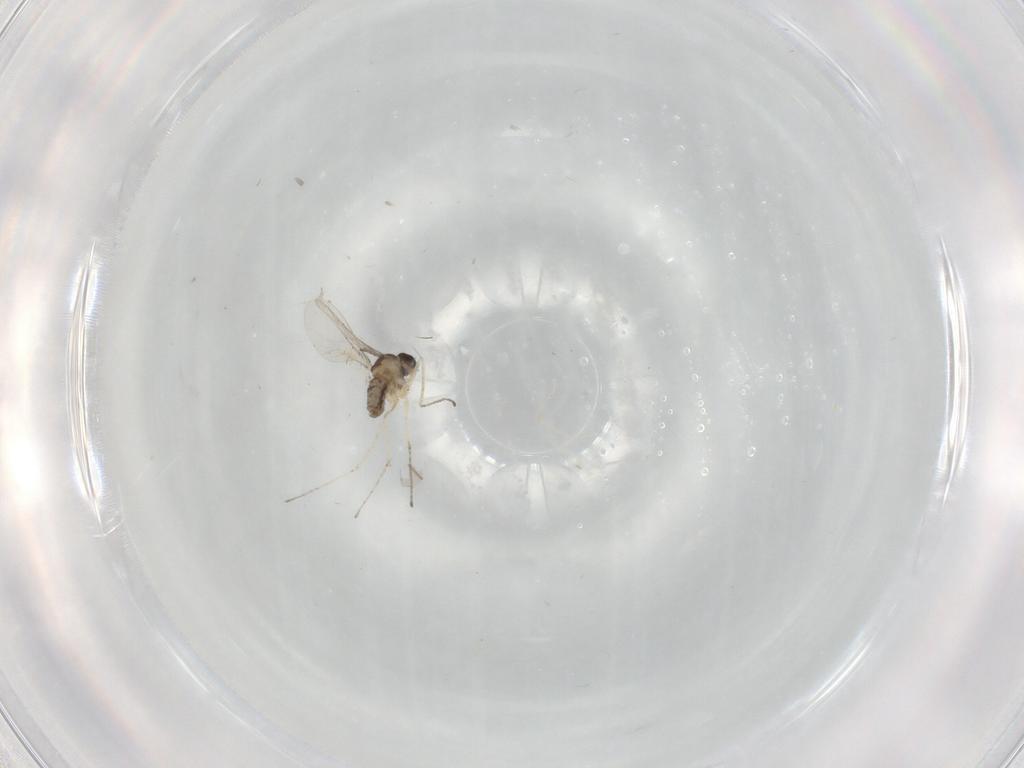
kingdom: Animalia
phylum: Arthropoda
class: Insecta
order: Diptera
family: Cecidomyiidae
